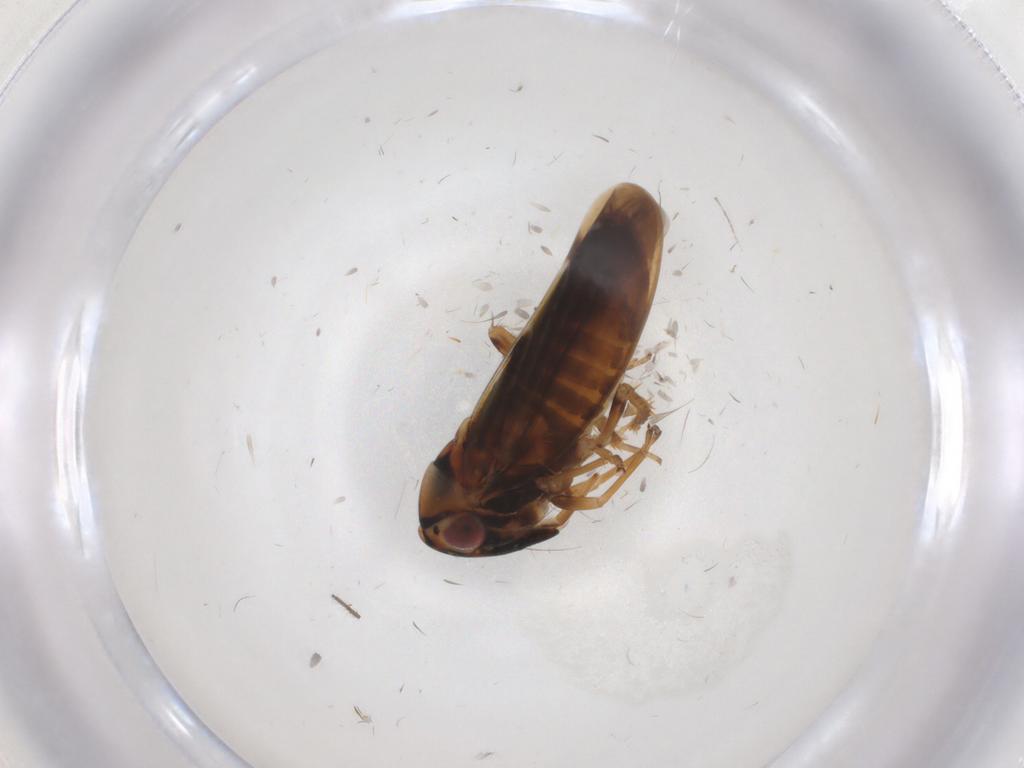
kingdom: Animalia
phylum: Arthropoda
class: Insecta
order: Hemiptera
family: Cicadellidae
